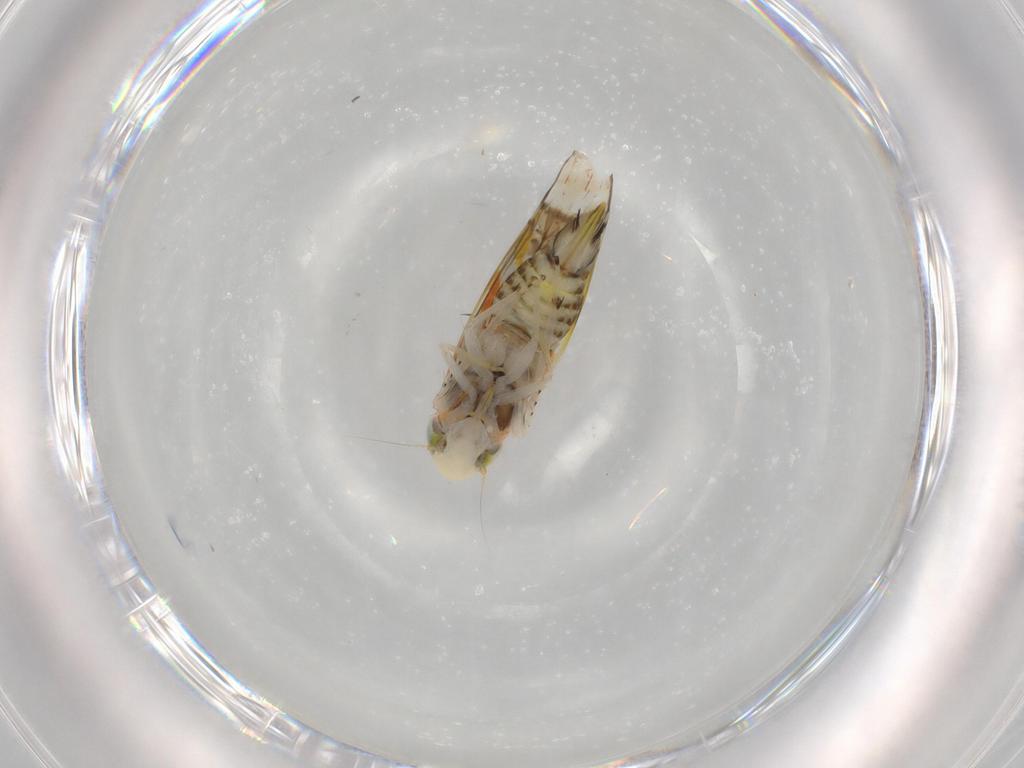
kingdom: Animalia
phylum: Arthropoda
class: Insecta
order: Hemiptera
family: Cicadellidae
